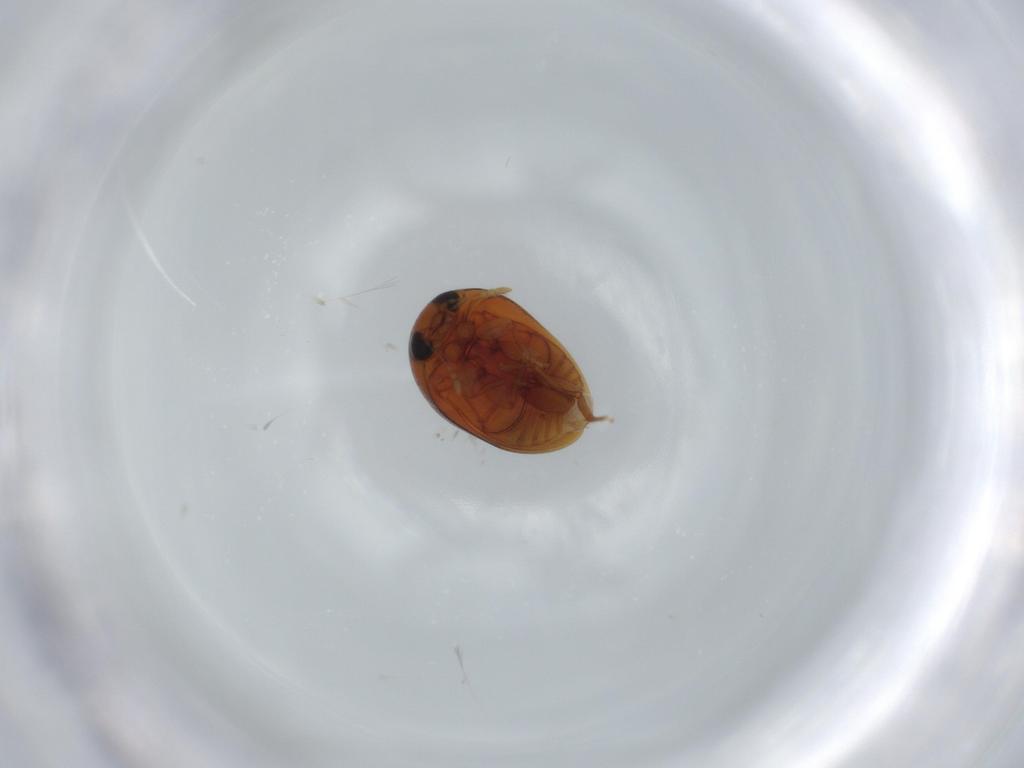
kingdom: Animalia
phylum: Arthropoda
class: Insecta
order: Coleoptera
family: Phalacridae
